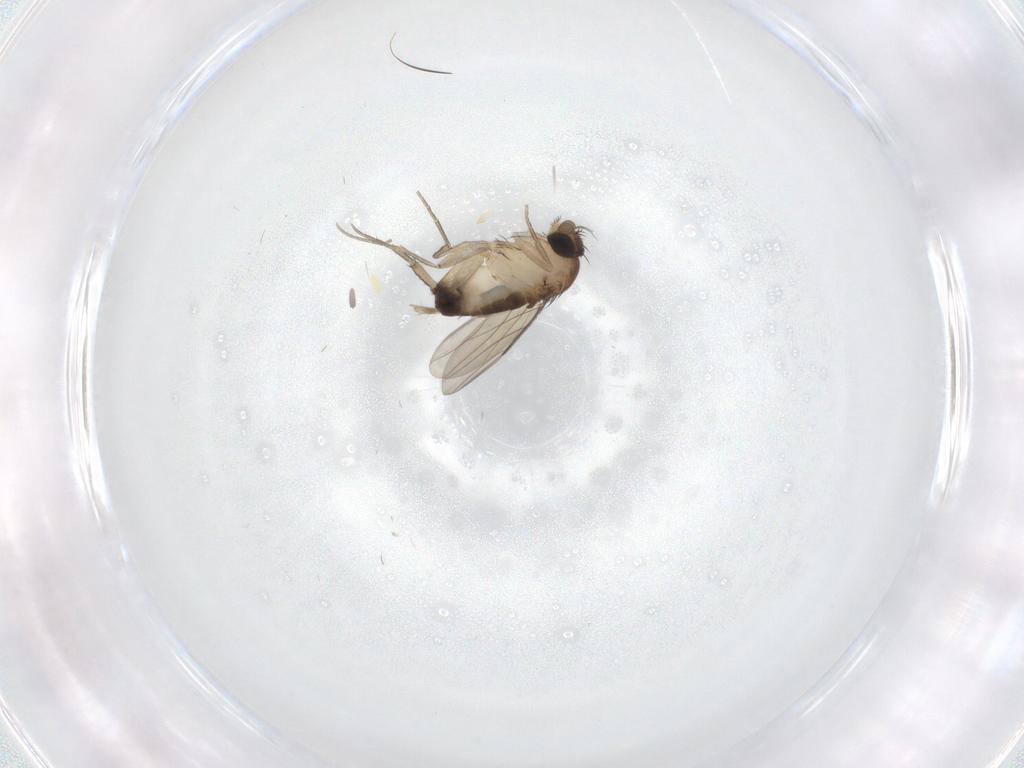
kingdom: Animalia
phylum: Arthropoda
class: Insecta
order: Diptera
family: Phoridae
